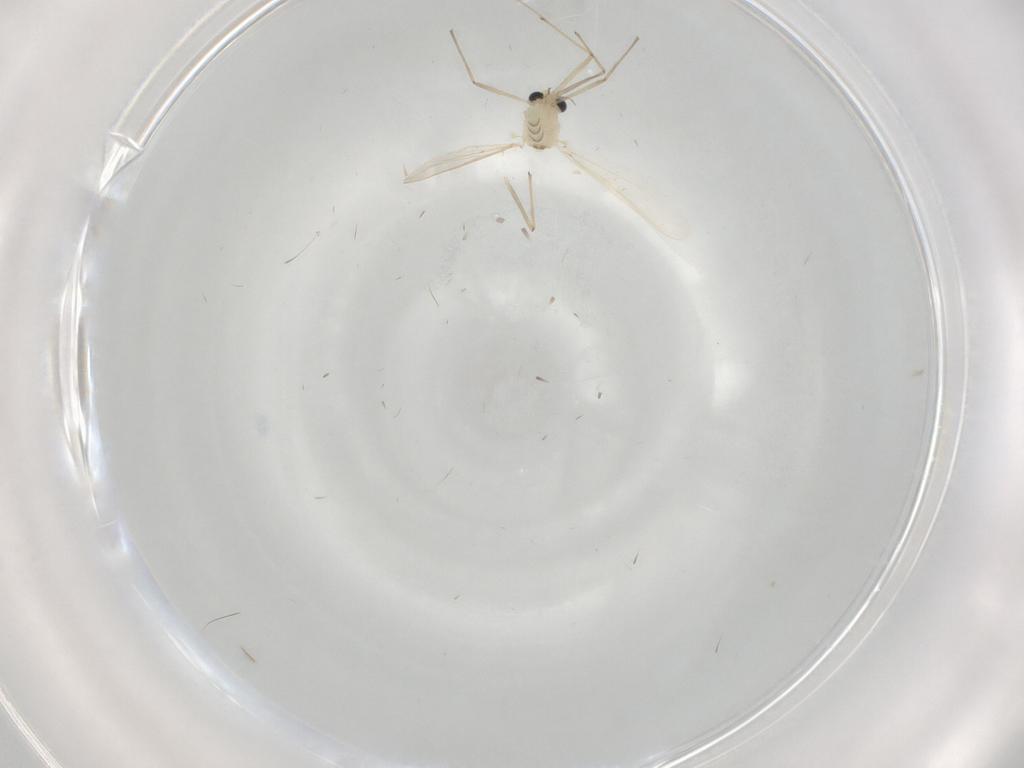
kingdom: Animalia
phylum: Arthropoda
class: Insecta
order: Diptera
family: Chironomidae
